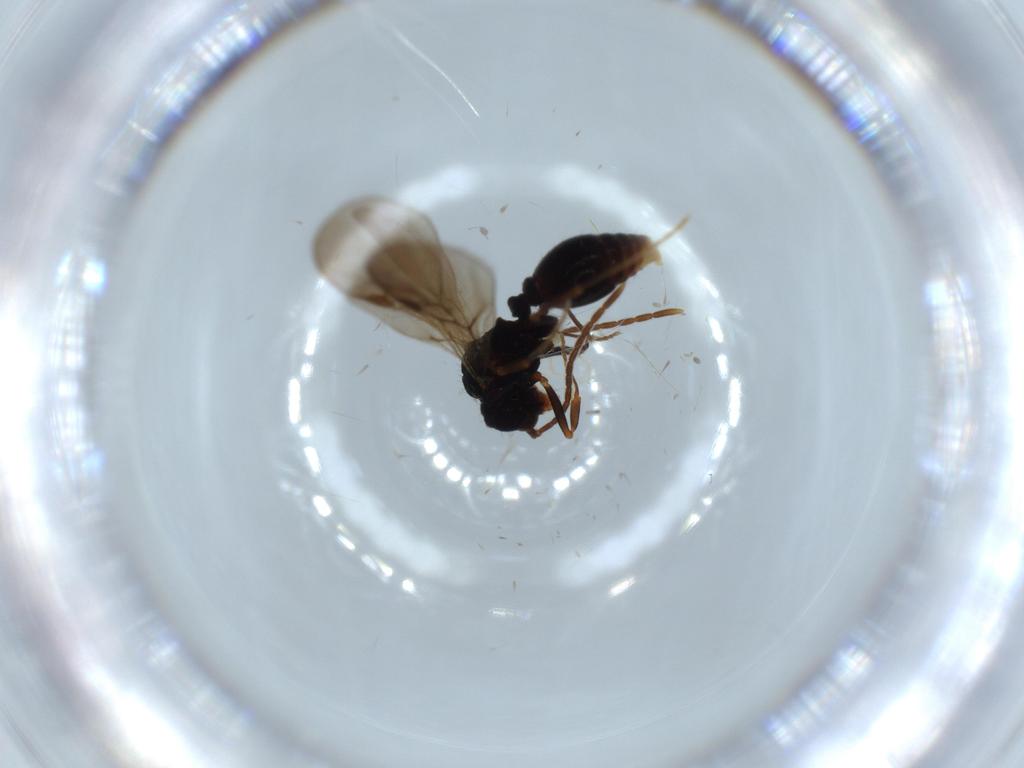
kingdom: Animalia
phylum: Arthropoda
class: Insecta
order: Hymenoptera
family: Formicidae
